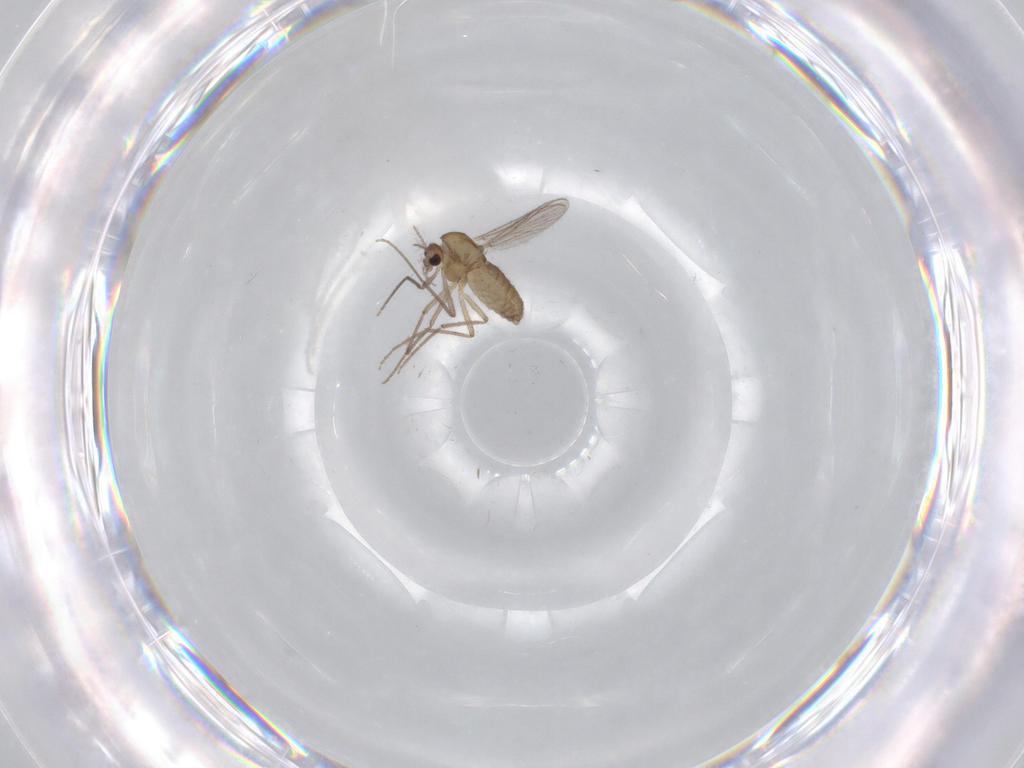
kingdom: Animalia
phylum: Arthropoda
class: Insecta
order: Diptera
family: Chironomidae
